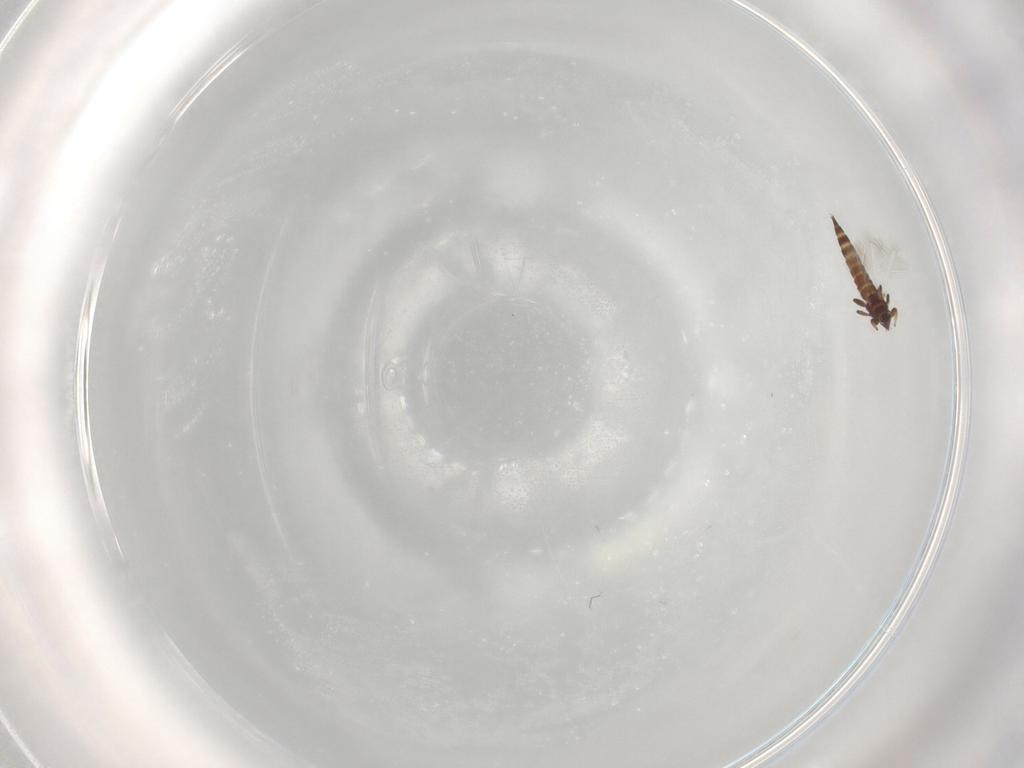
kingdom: Animalia
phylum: Arthropoda
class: Insecta
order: Thysanoptera
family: Phlaeothripidae
